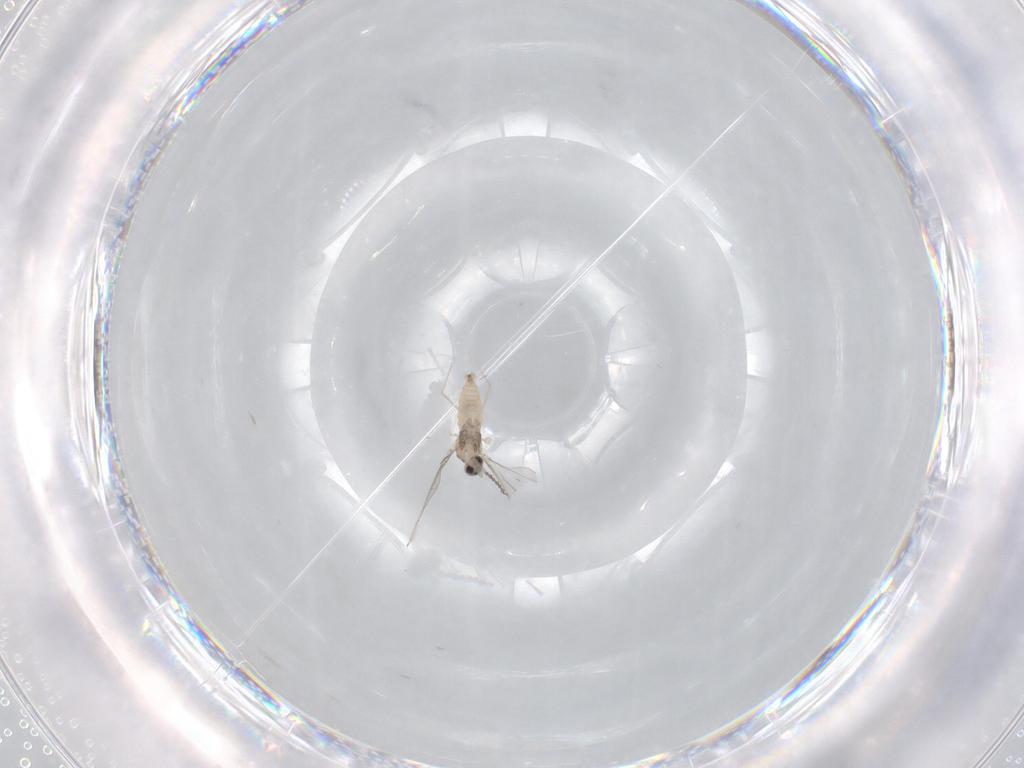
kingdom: Animalia
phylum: Arthropoda
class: Insecta
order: Diptera
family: Cecidomyiidae
